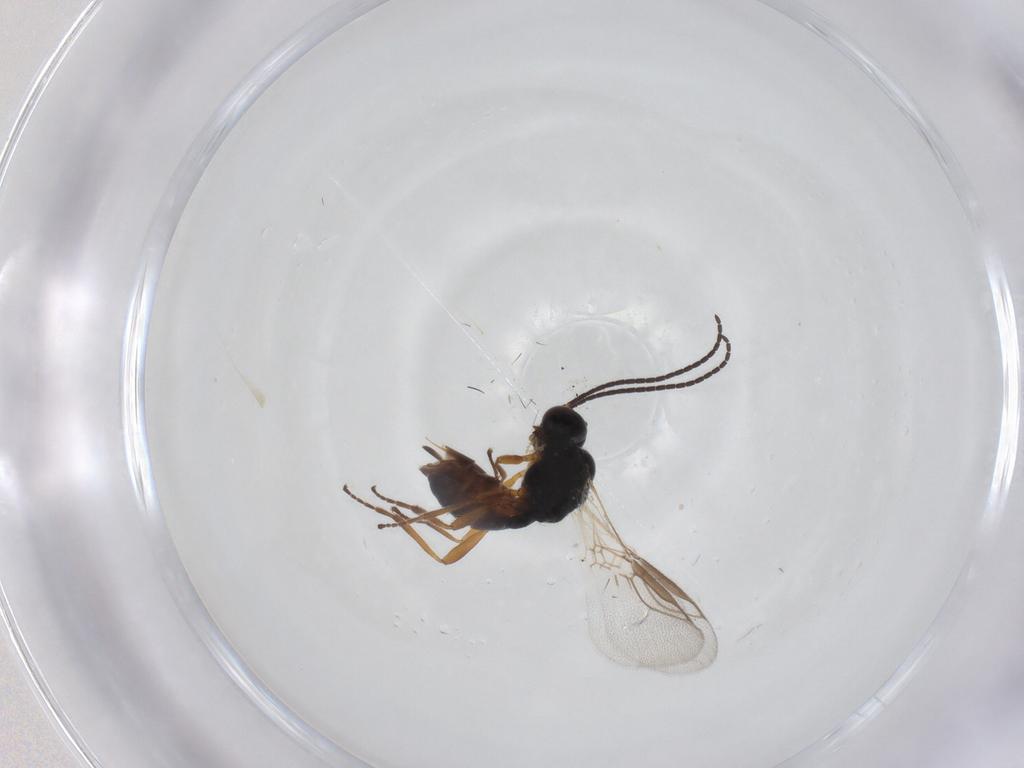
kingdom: Animalia
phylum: Arthropoda
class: Insecta
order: Hymenoptera
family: Braconidae
